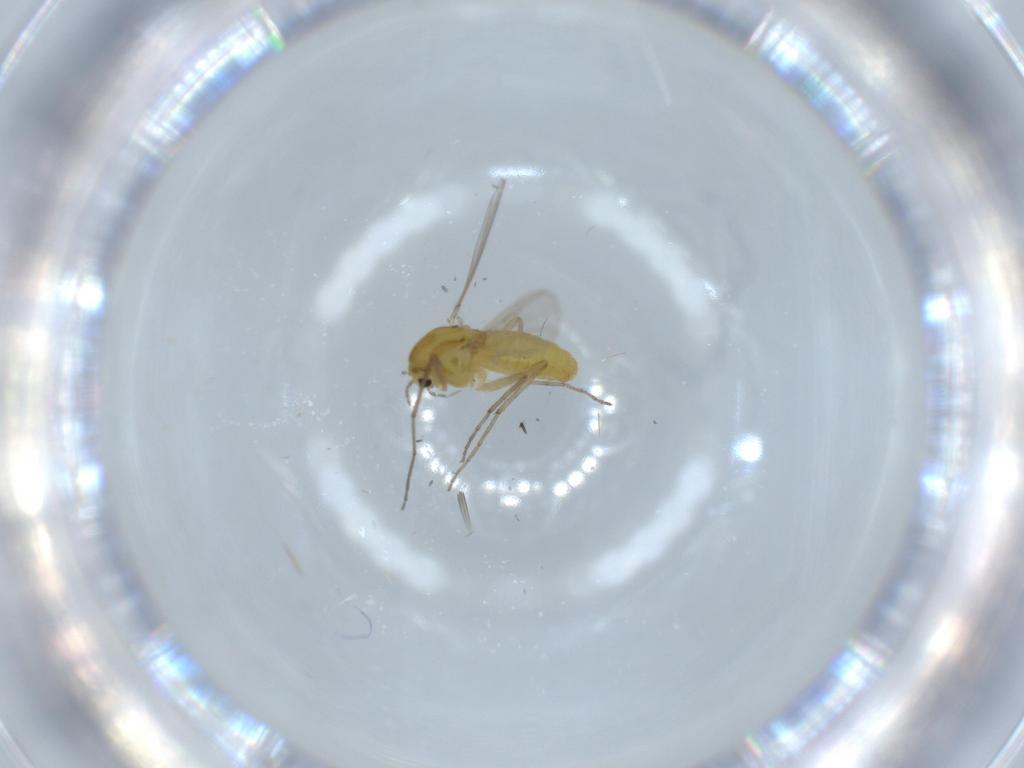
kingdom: Animalia
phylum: Arthropoda
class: Insecta
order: Diptera
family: Chironomidae
